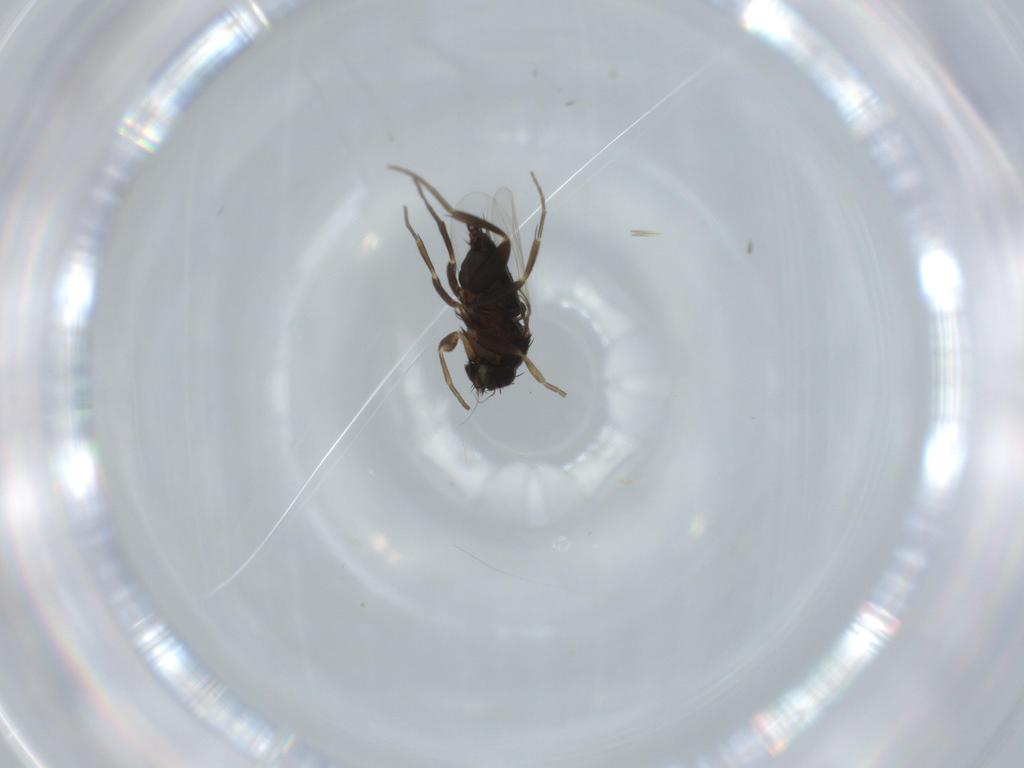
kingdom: Animalia
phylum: Arthropoda
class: Insecta
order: Diptera
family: Phoridae
